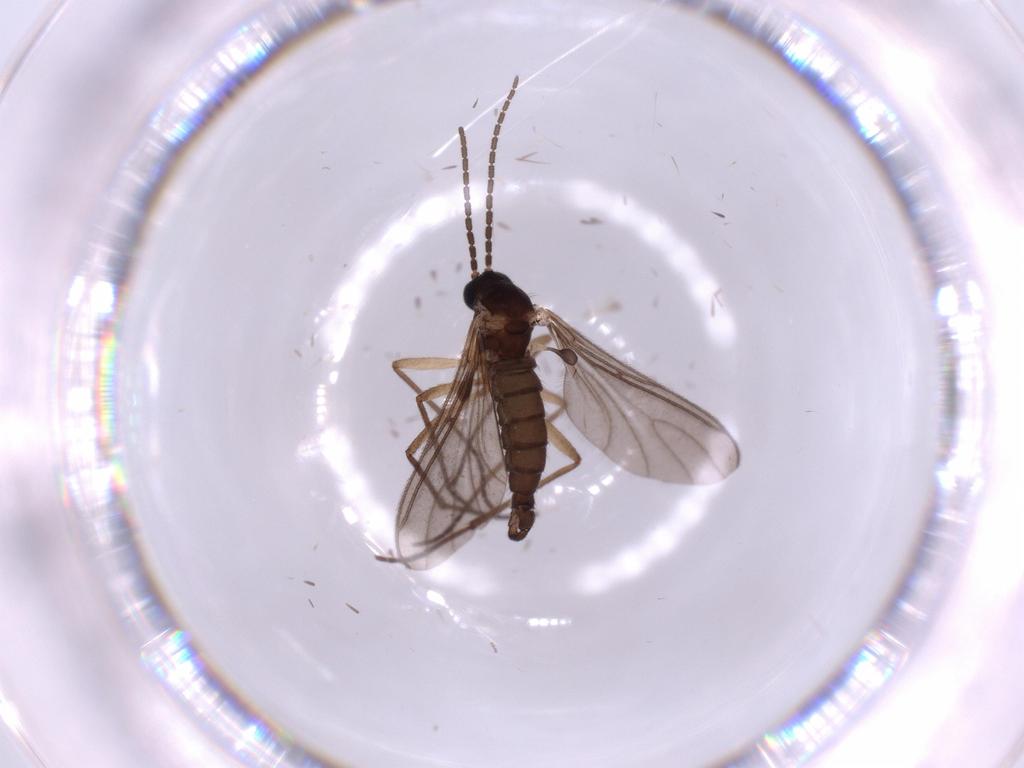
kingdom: Animalia
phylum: Arthropoda
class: Insecta
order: Diptera
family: Sciaridae
